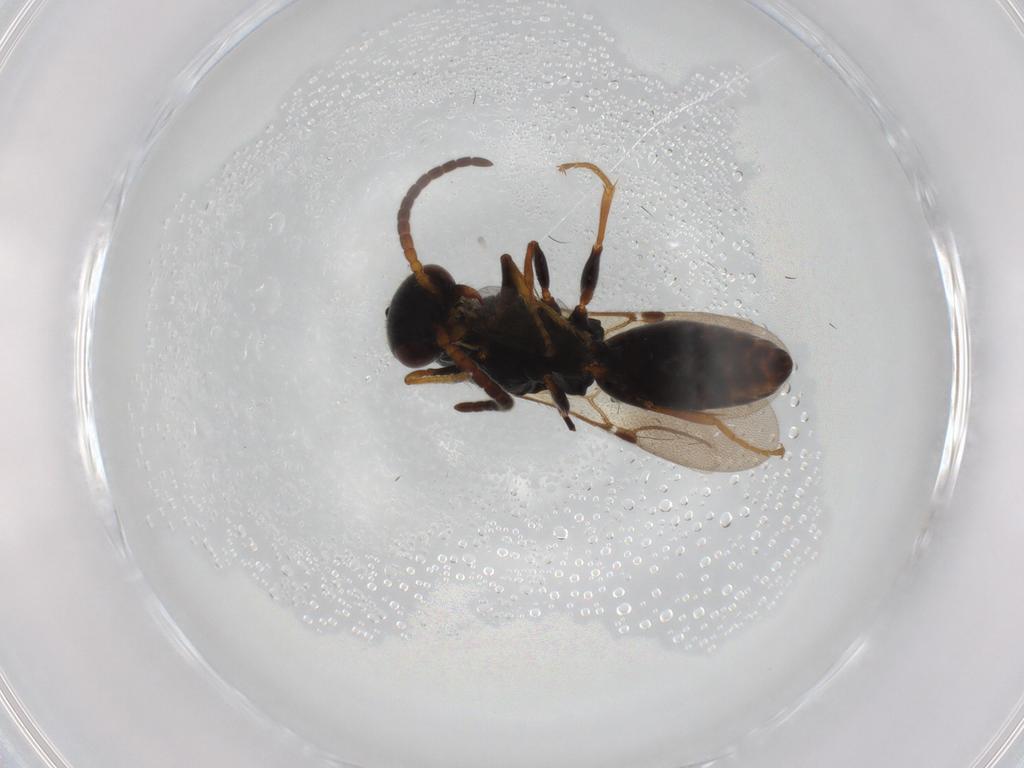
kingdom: Animalia
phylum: Arthropoda
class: Insecta
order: Hymenoptera
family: Bethylidae
